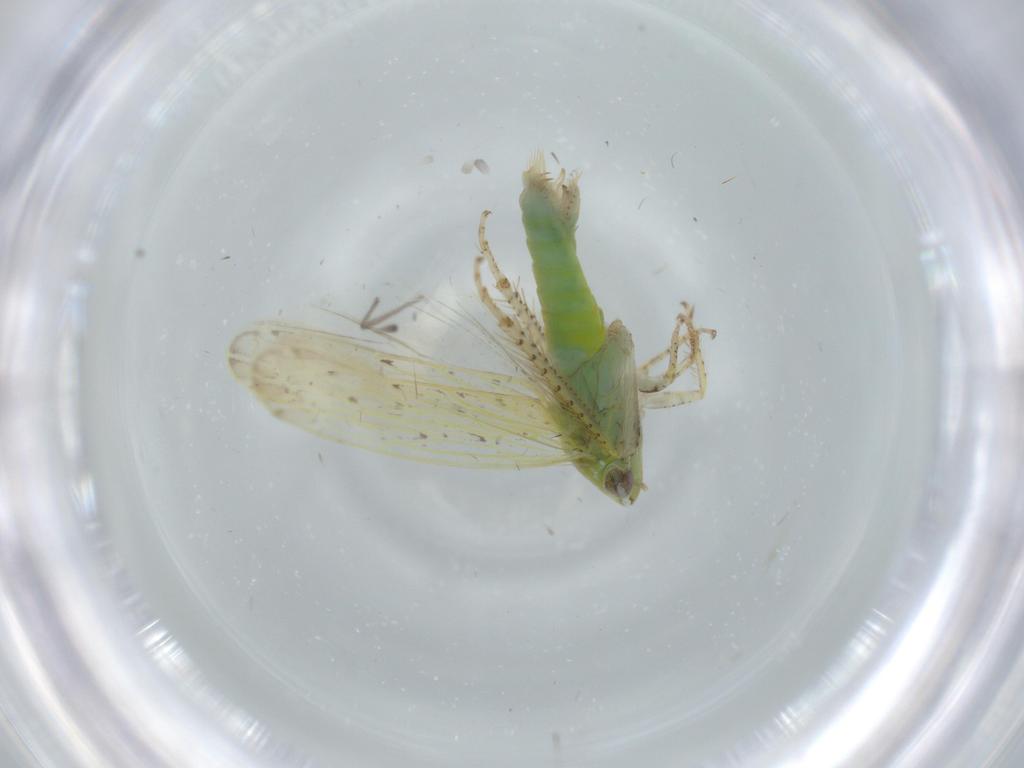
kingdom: Animalia
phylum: Arthropoda
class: Insecta
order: Hemiptera
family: Cicadellidae
